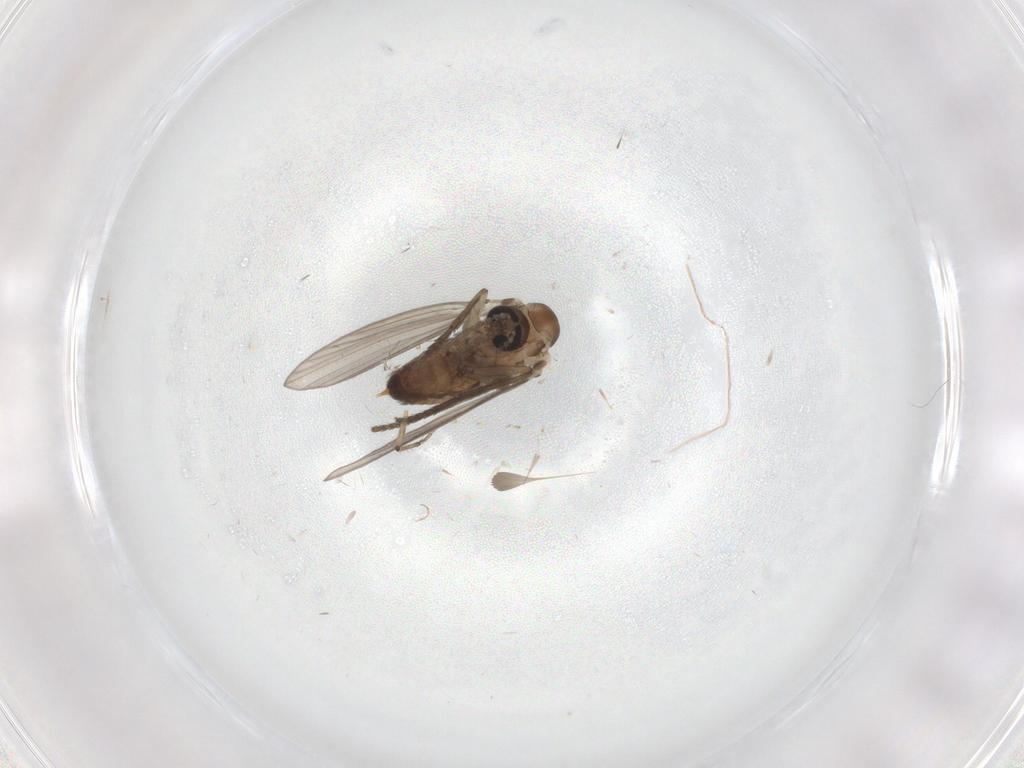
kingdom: Animalia
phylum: Arthropoda
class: Insecta
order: Diptera
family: Psychodidae
